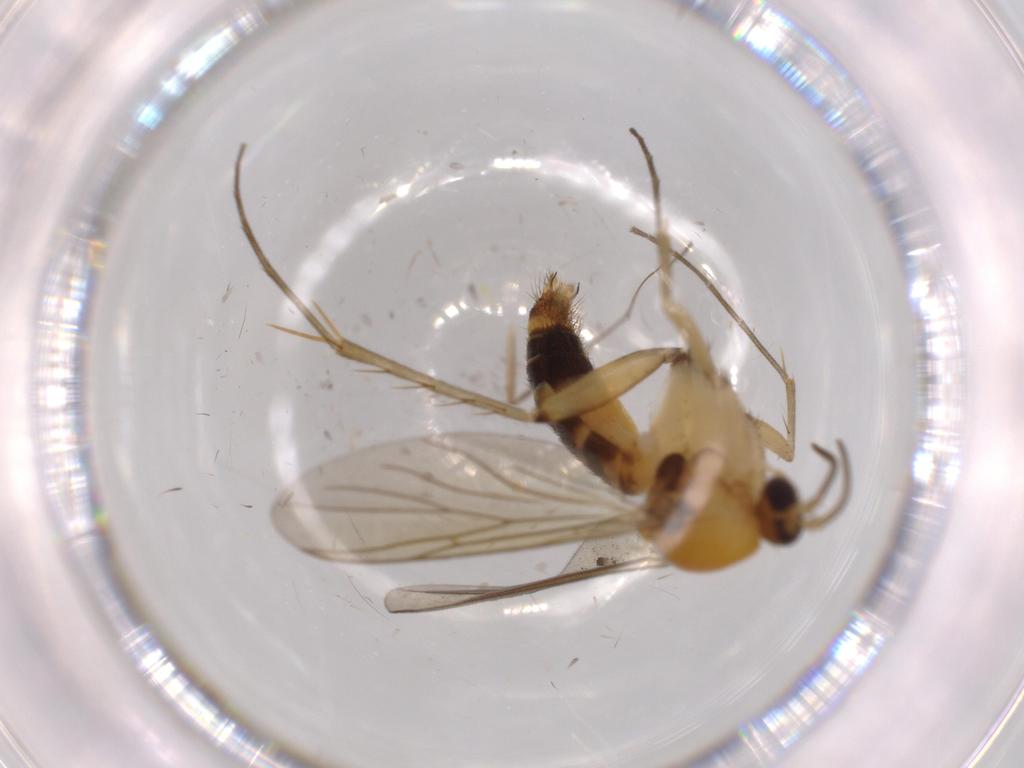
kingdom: Animalia
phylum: Arthropoda
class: Insecta
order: Diptera
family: Mycetophilidae
